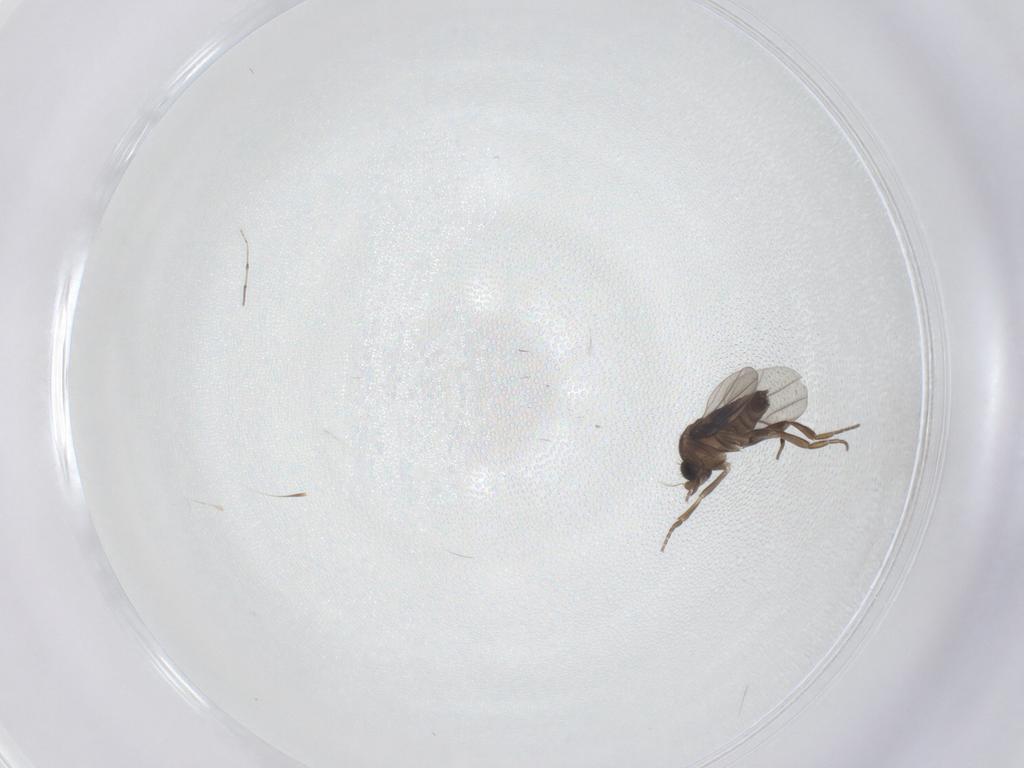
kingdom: Animalia
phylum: Arthropoda
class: Insecta
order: Diptera
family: Phoridae
